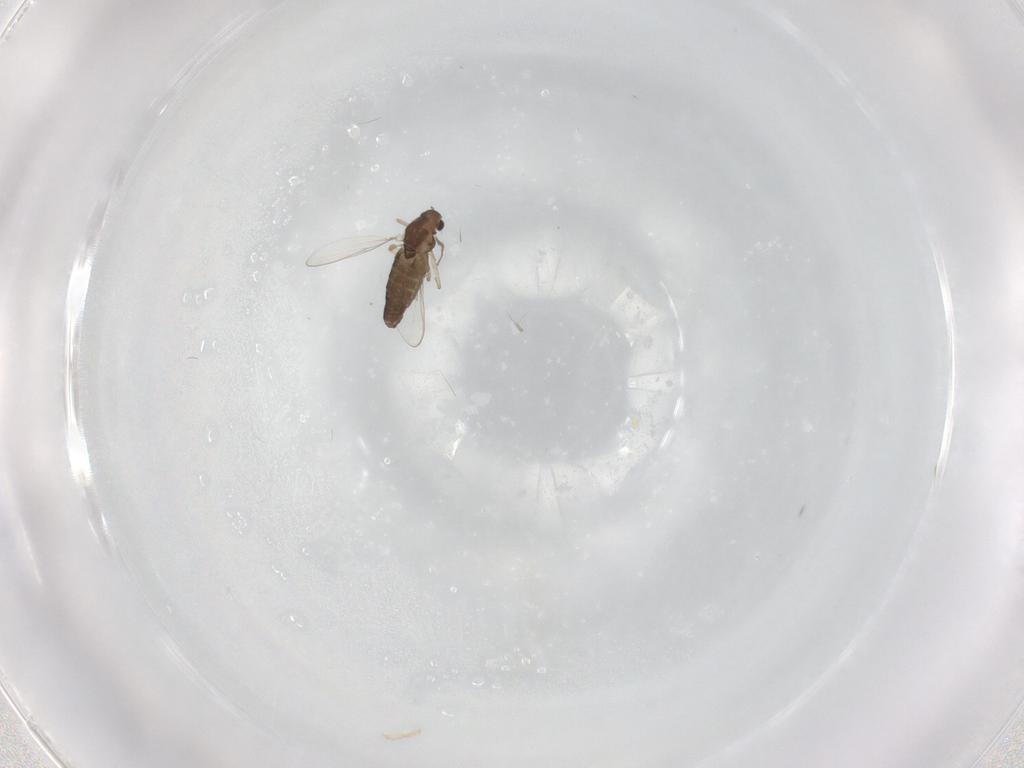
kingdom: Animalia
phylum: Arthropoda
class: Insecta
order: Diptera
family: Chironomidae
